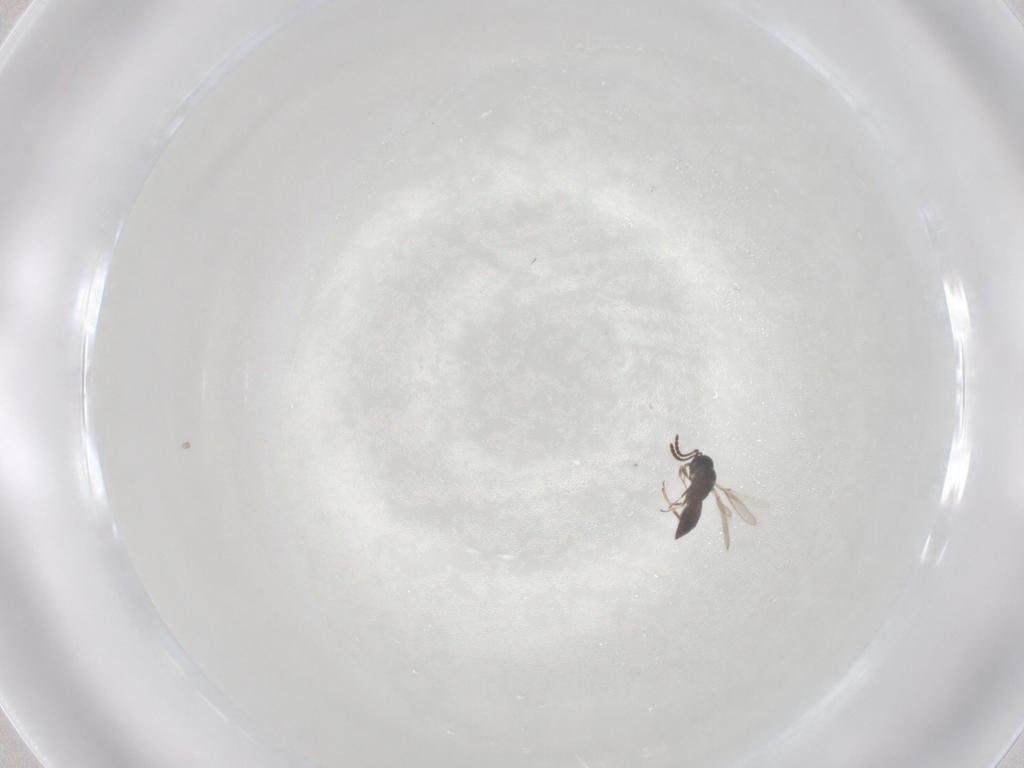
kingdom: Animalia
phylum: Arthropoda
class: Insecta
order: Hymenoptera
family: Scelionidae
